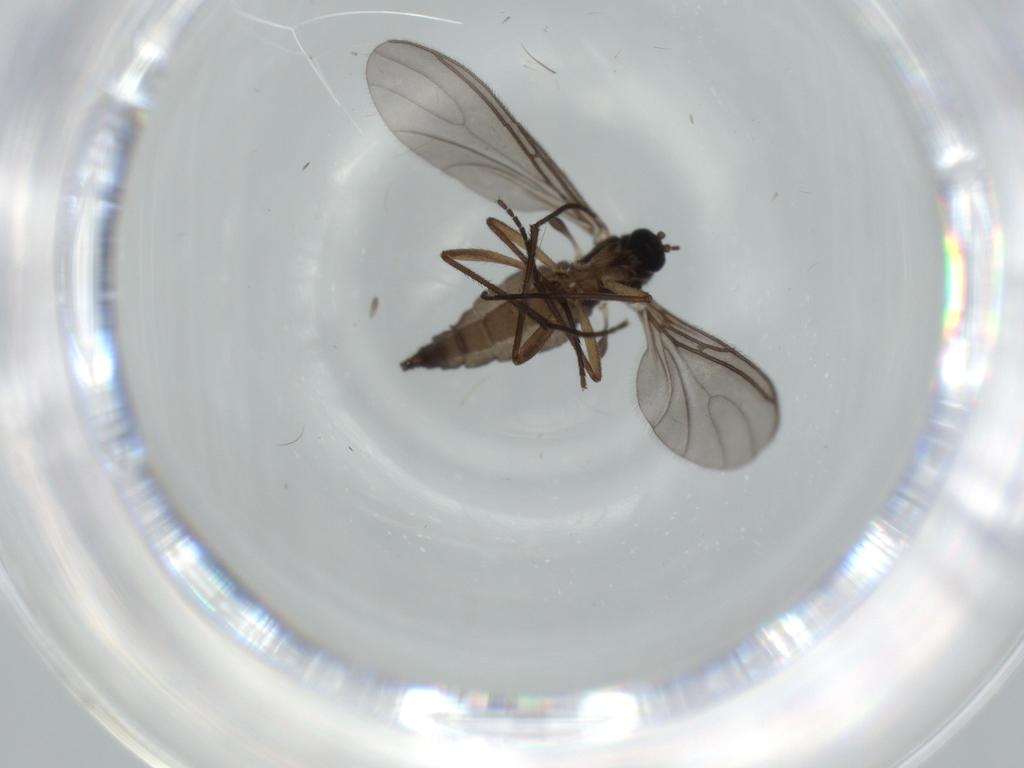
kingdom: Animalia
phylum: Arthropoda
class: Insecta
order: Diptera
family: Sciaridae
